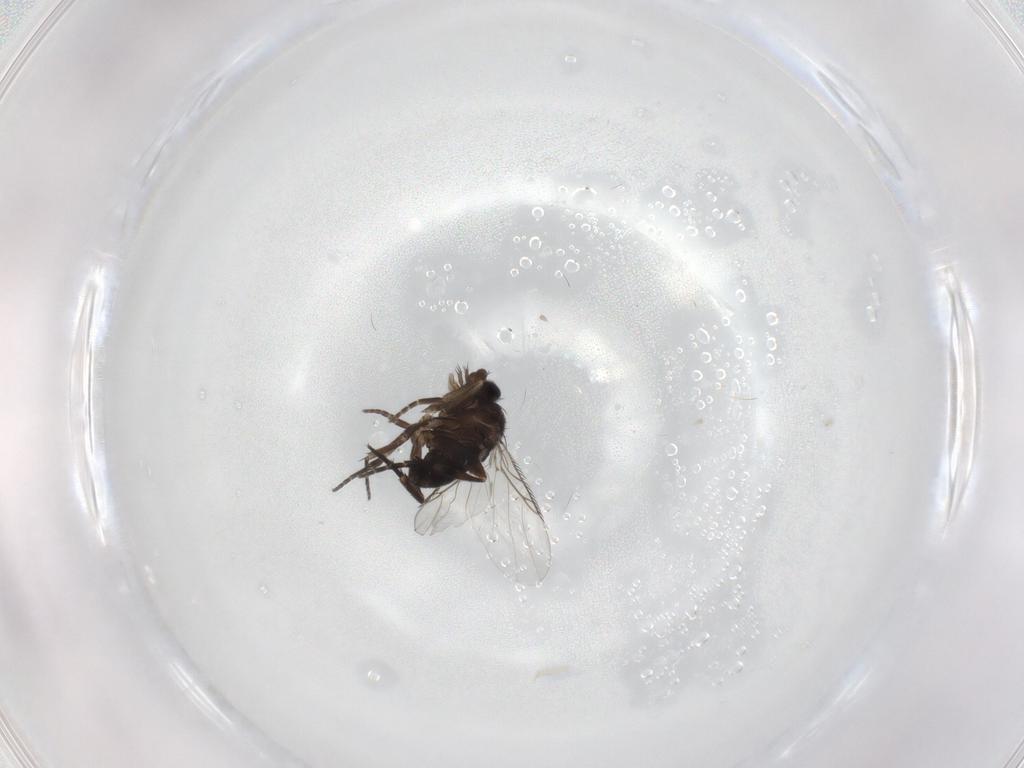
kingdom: Animalia
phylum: Arthropoda
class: Insecta
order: Diptera
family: Phoridae
